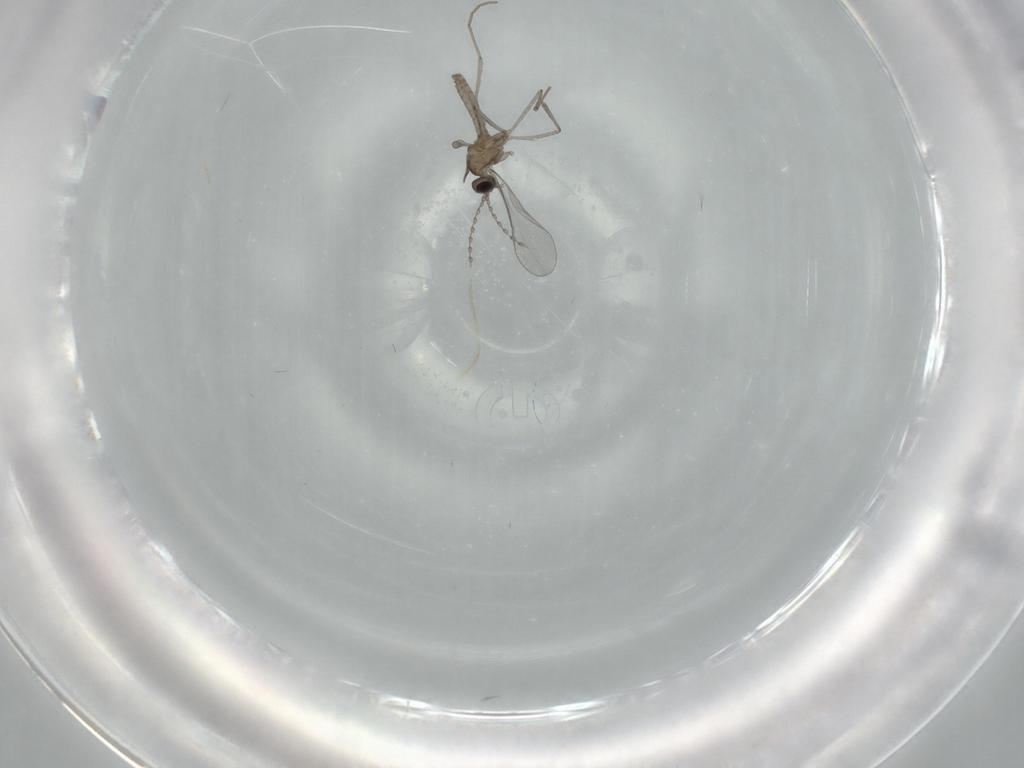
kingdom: Animalia
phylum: Arthropoda
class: Insecta
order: Diptera
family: Cecidomyiidae
